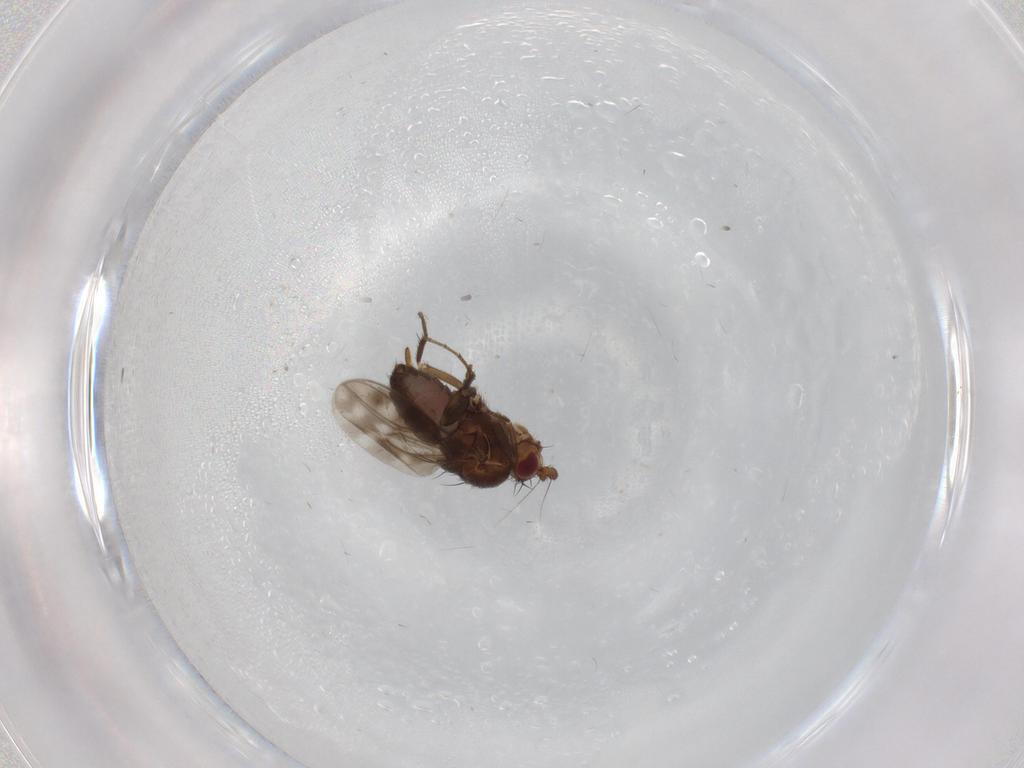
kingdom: Animalia
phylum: Arthropoda
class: Insecta
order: Diptera
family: Sphaeroceridae
